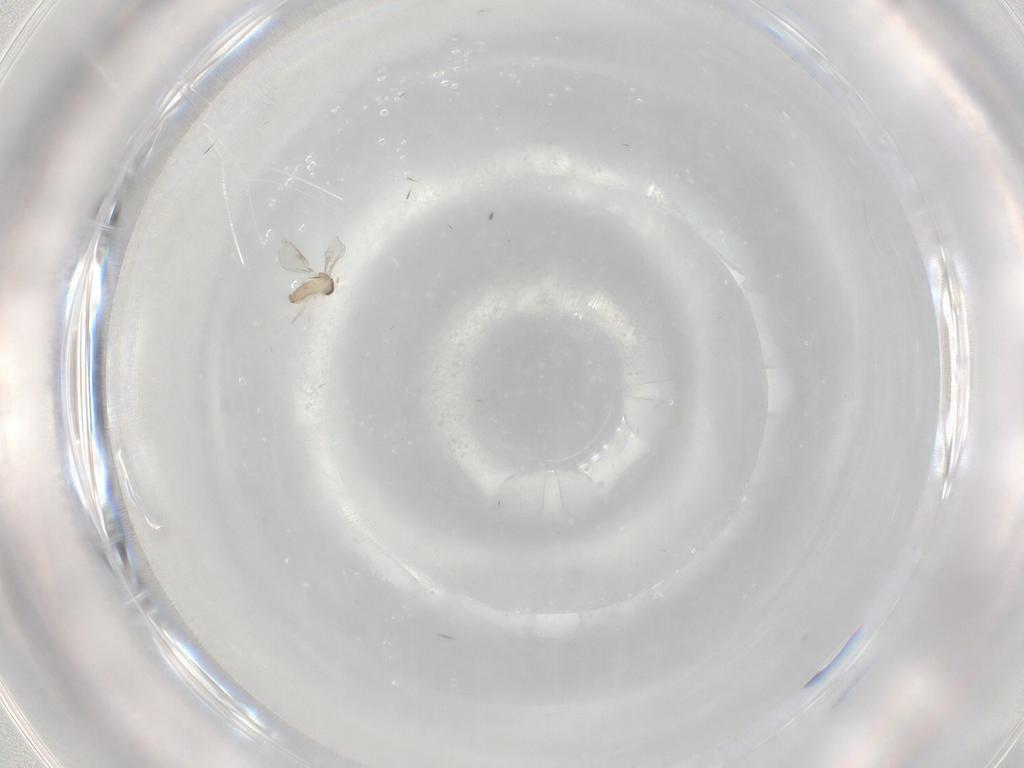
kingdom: Animalia
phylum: Arthropoda
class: Insecta
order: Diptera
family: Cecidomyiidae
